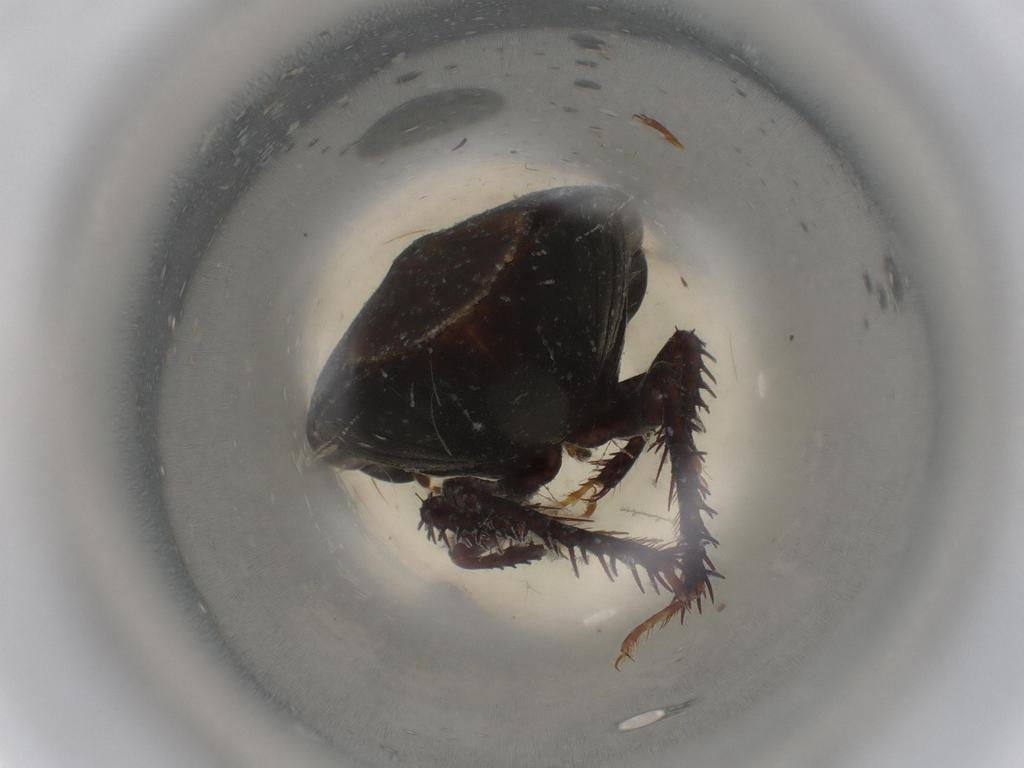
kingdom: Animalia
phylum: Arthropoda
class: Insecta
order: Hemiptera
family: Cydnidae
